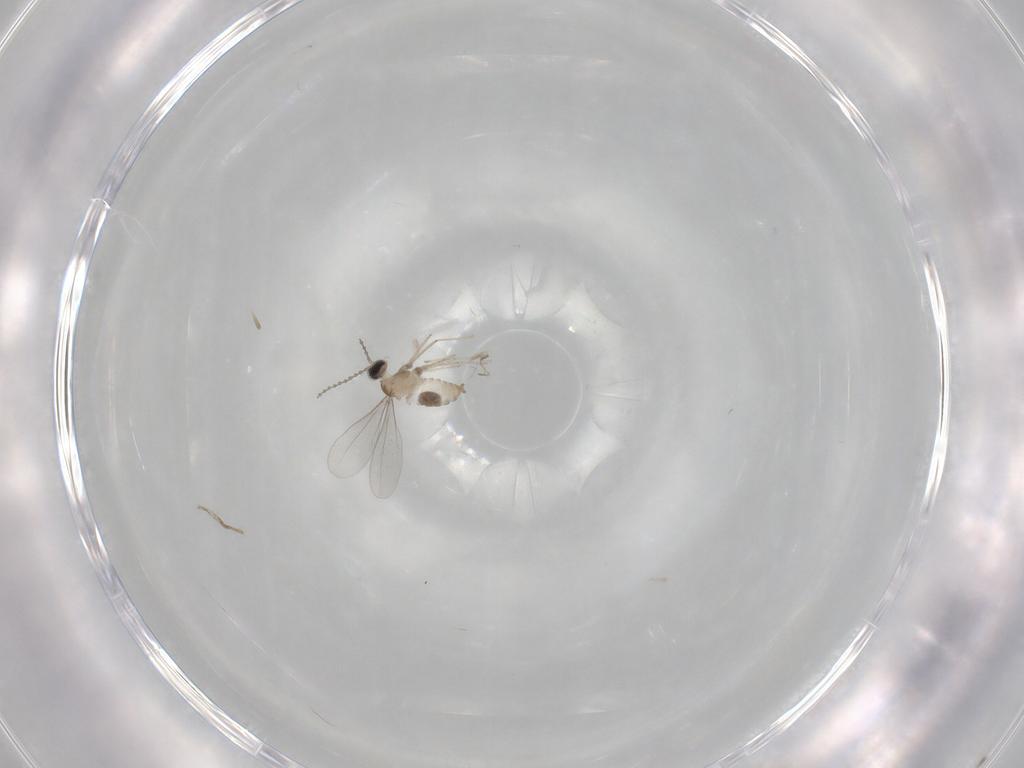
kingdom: Animalia
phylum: Arthropoda
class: Insecta
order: Diptera
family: Cecidomyiidae
